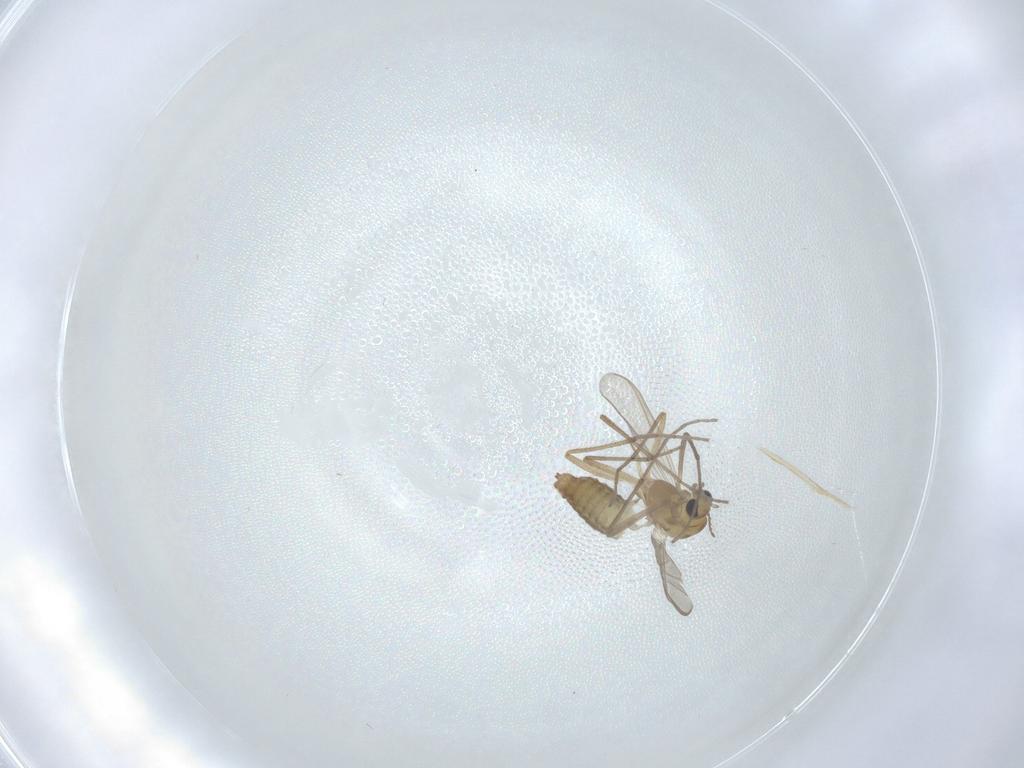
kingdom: Animalia
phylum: Arthropoda
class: Insecta
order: Diptera
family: Chironomidae
